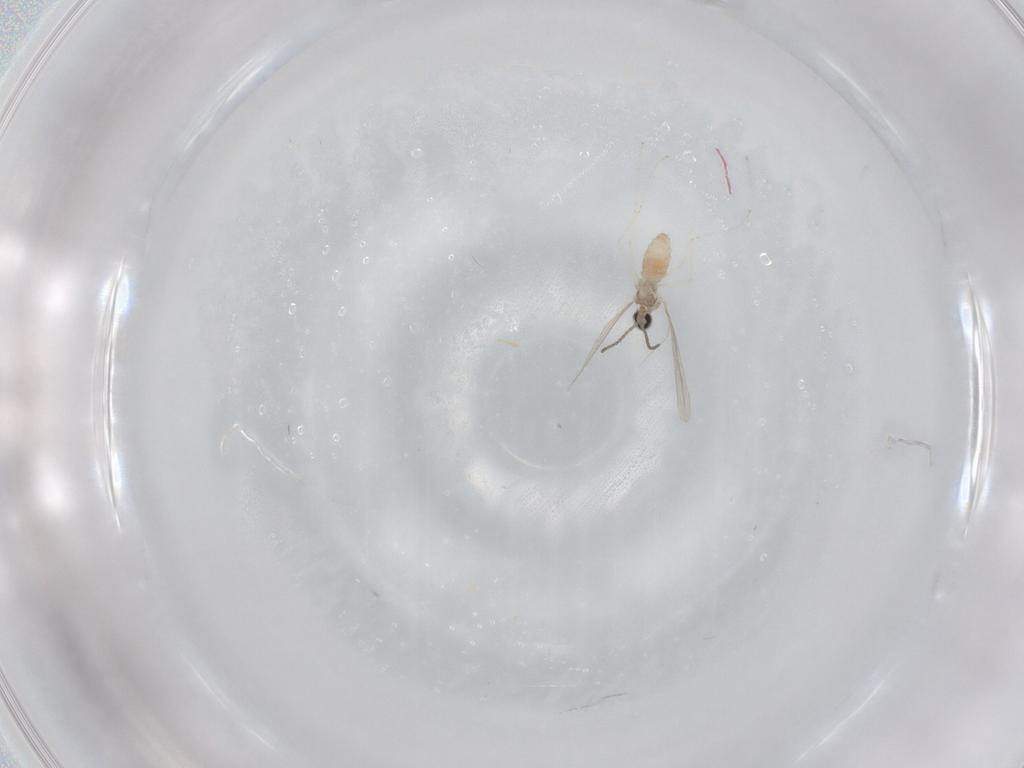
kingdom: Animalia
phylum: Arthropoda
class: Insecta
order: Diptera
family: Cecidomyiidae
